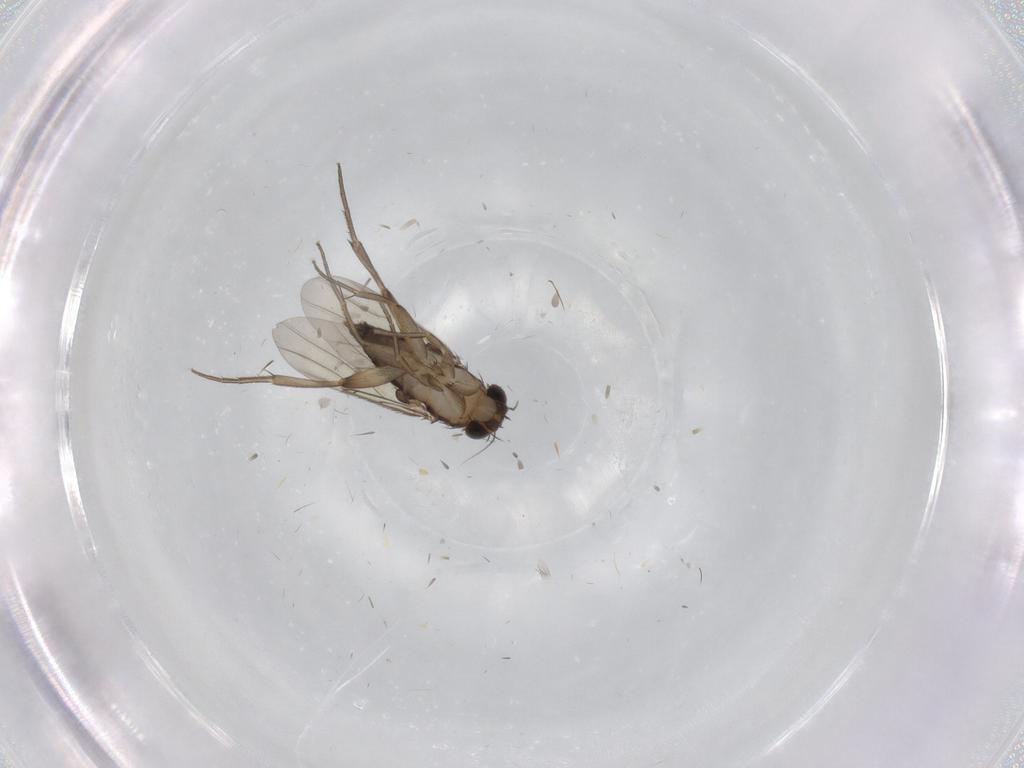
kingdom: Animalia
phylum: Arthropoda
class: Insecta
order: Diptera
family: Phoridae
